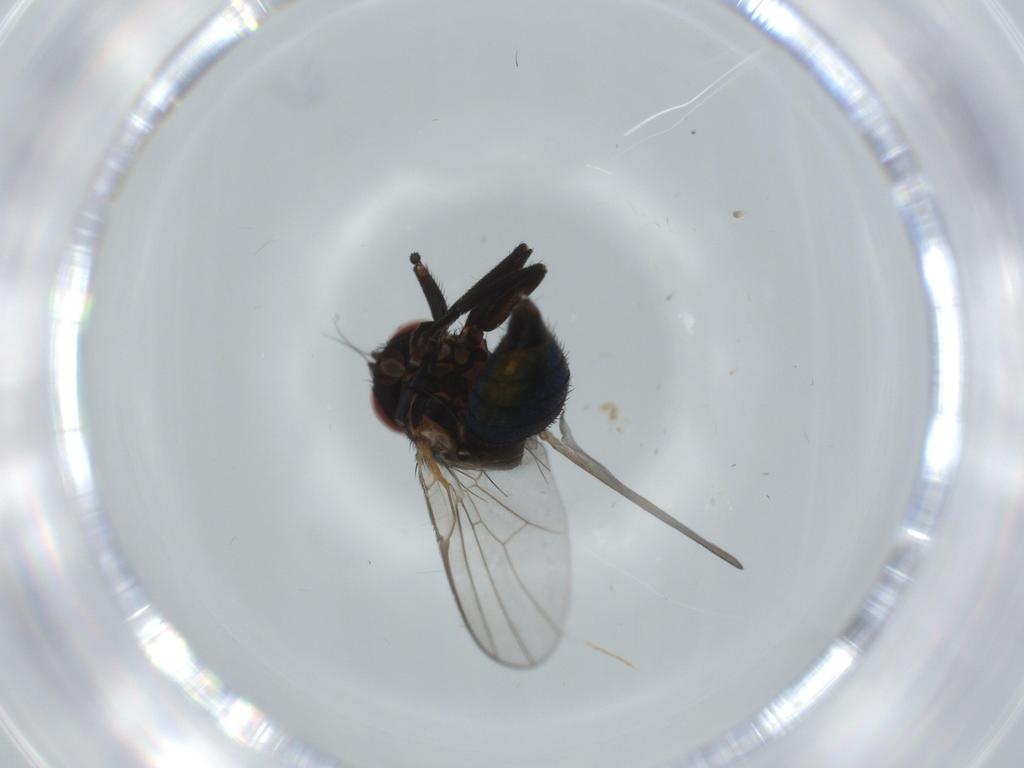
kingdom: Animalia
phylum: Arthropoda
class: Insecta
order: Diptera
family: Agromyzidae
